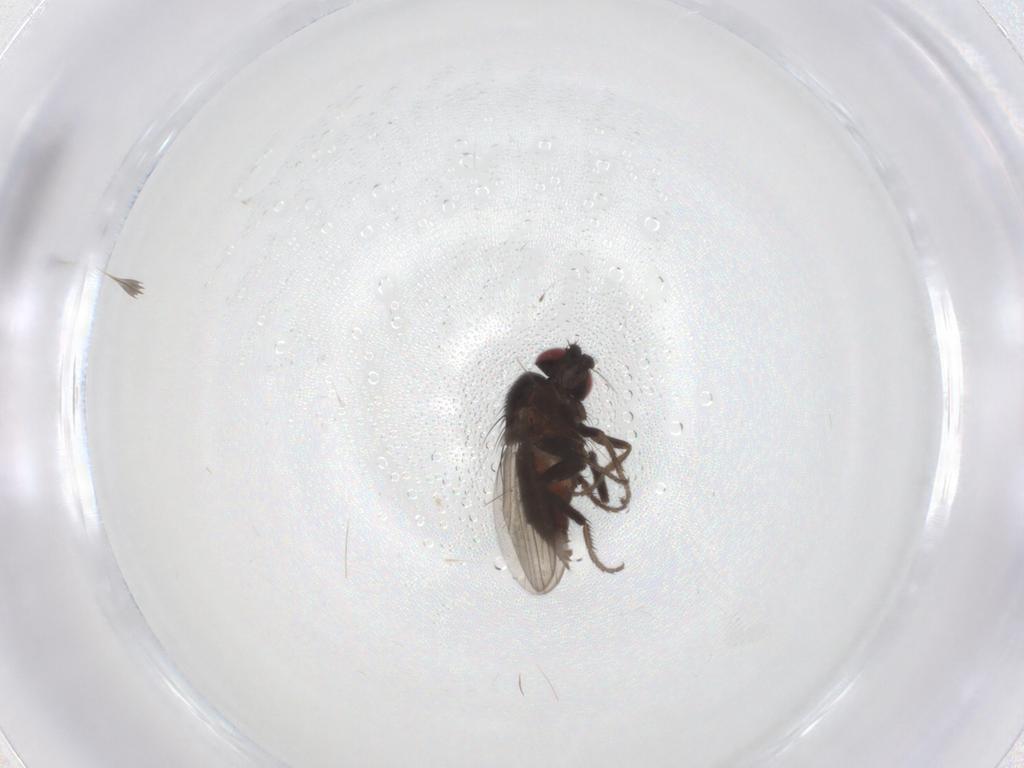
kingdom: Animalia
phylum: Arthropoda
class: Insecta
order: Diptera
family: Milichiidae
